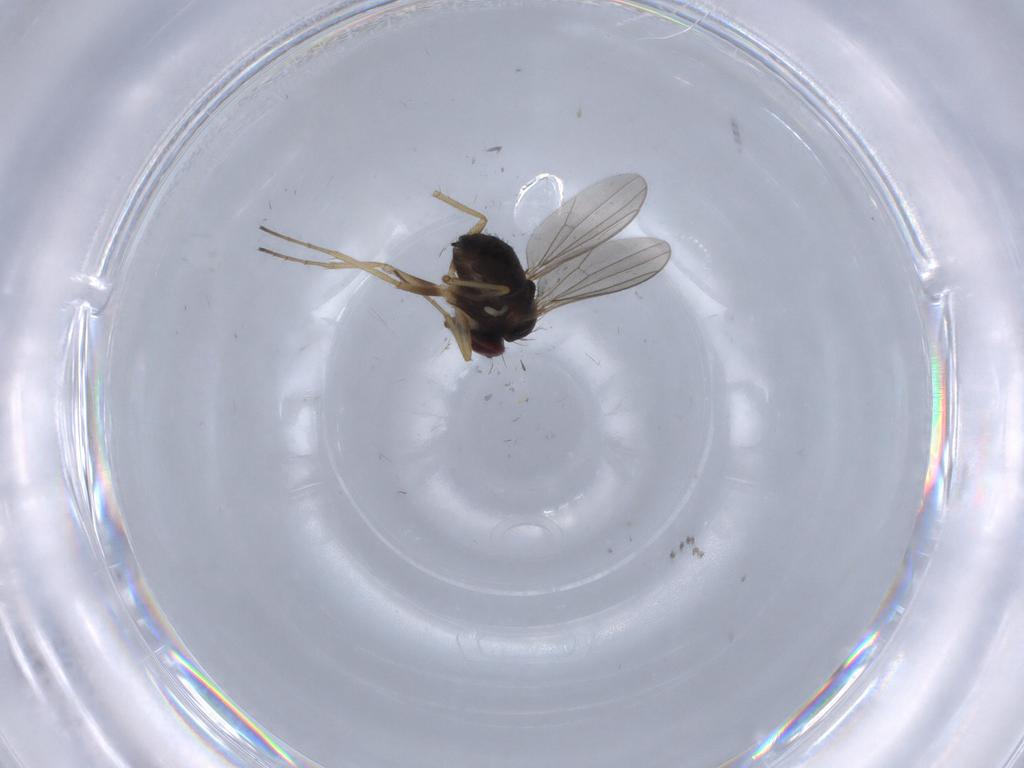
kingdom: Animalia
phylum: Arthropoda
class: Insecta
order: Diptera
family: Dolichopodidae
